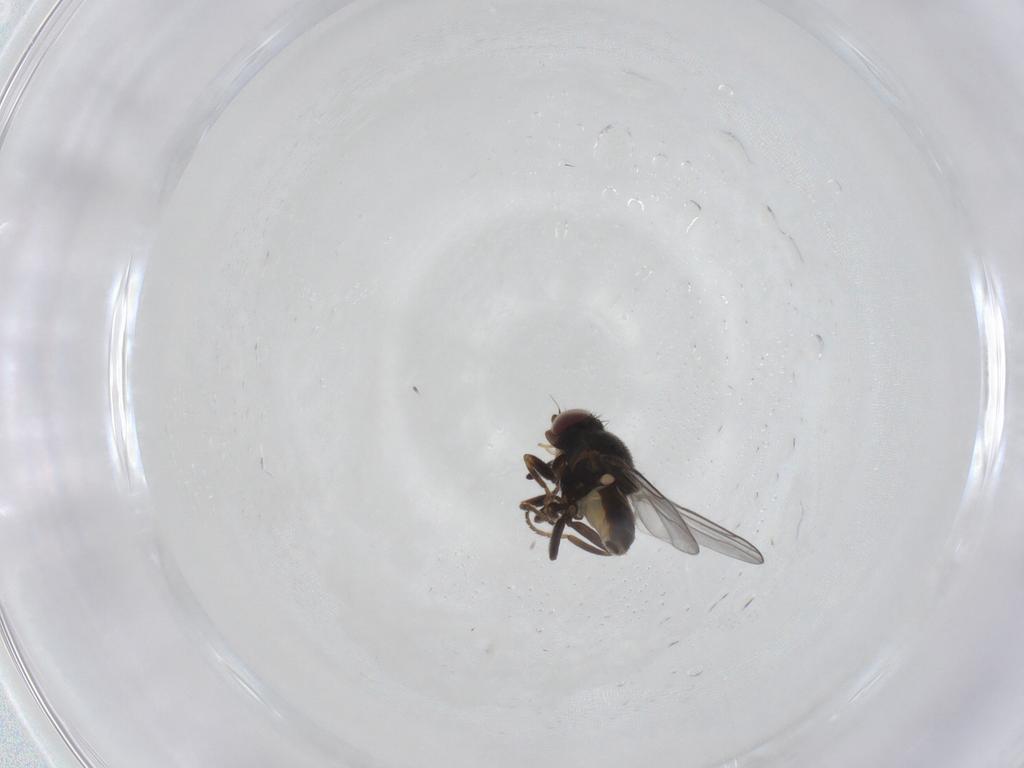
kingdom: Animalia
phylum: Arthropoda
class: Insecta
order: Diptera
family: Chloropidae
